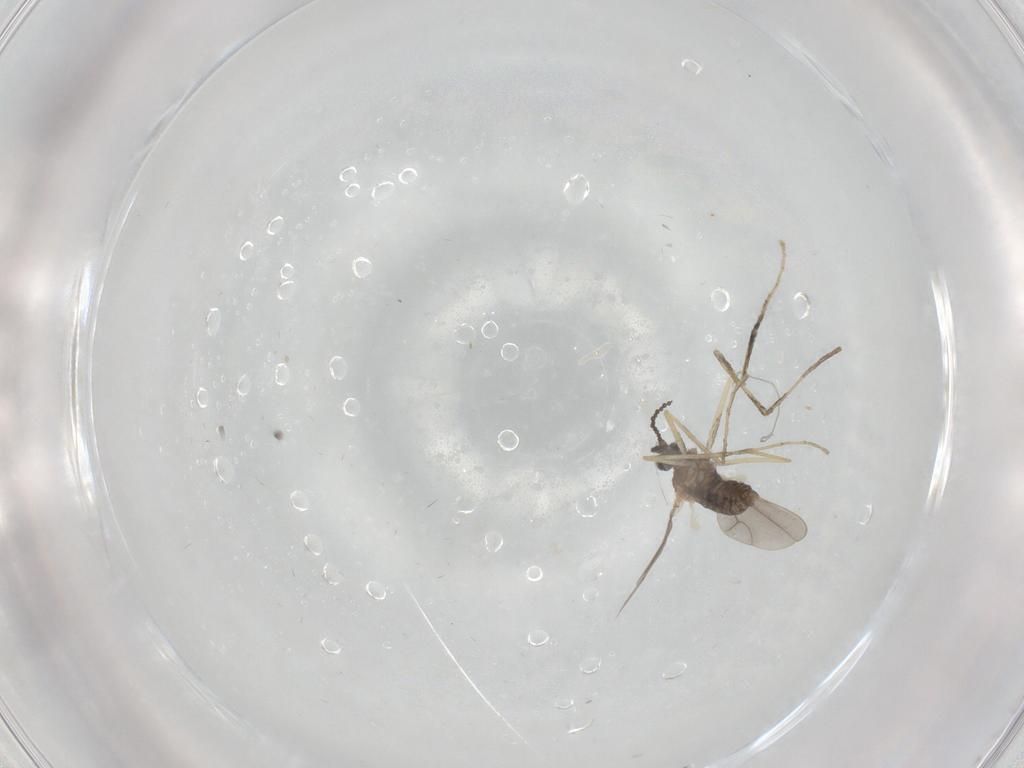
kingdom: Animalia
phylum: Arthropoda
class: Insecta
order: Diptera
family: Cecidomyiidae
